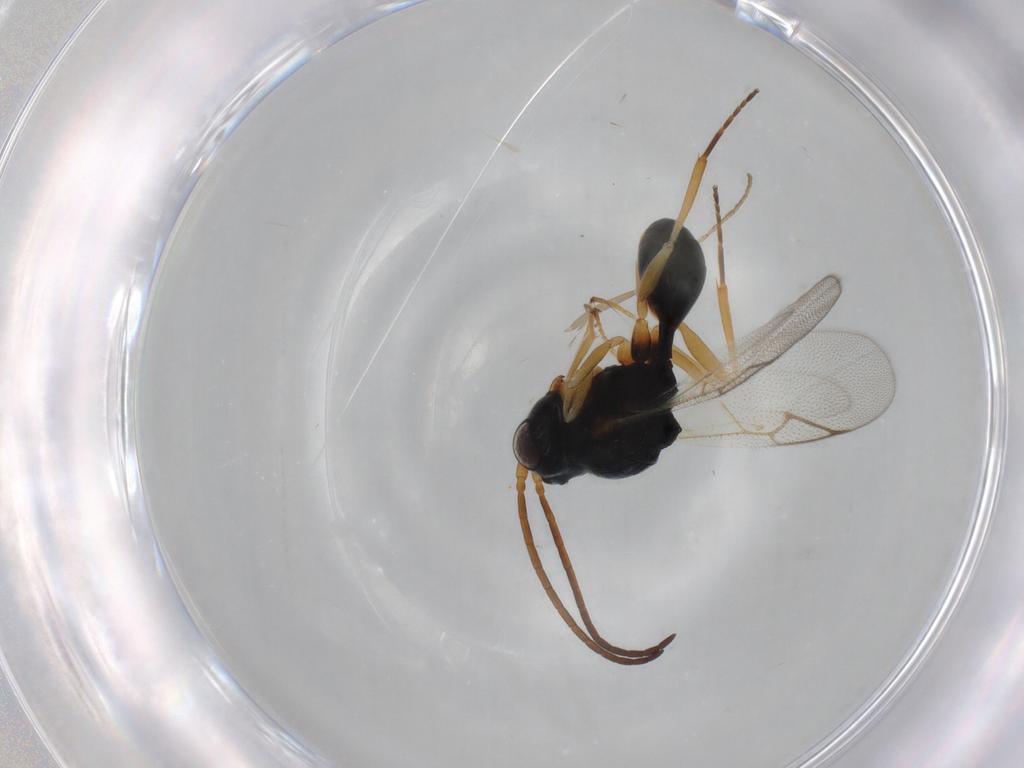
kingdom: Animalia
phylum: Arthropoda
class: Insecta
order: Hymenoptera
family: Figitidae
